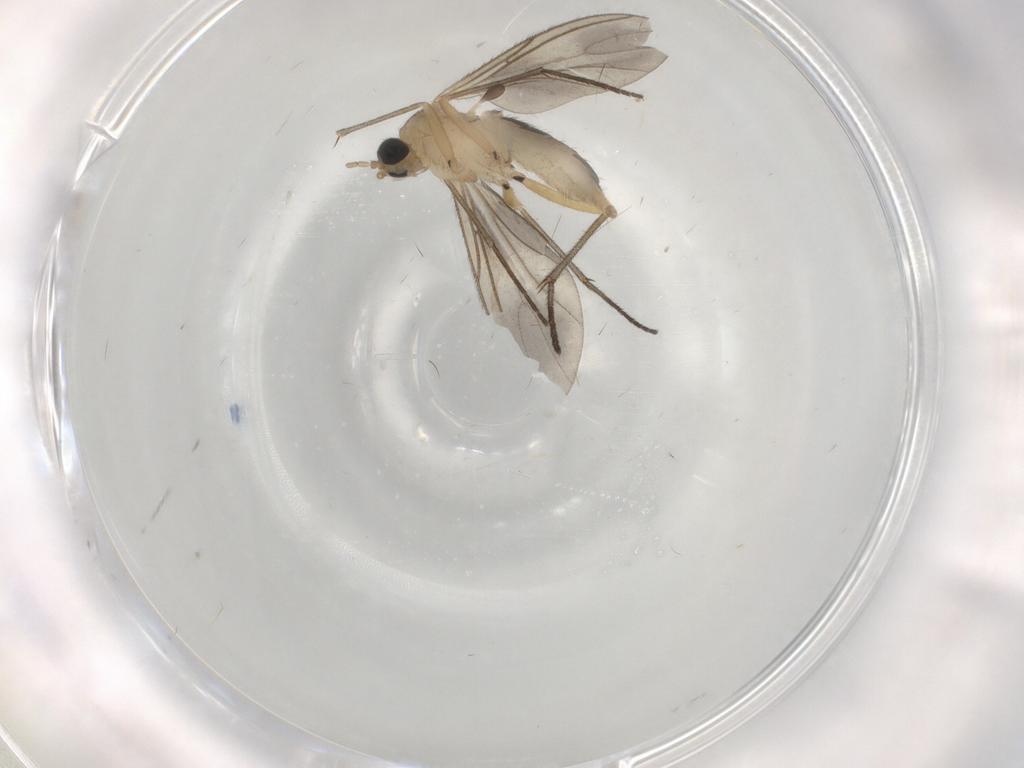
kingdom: Animalia
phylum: Arthropoda
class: Insecta
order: Diptera
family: Sciaridae
